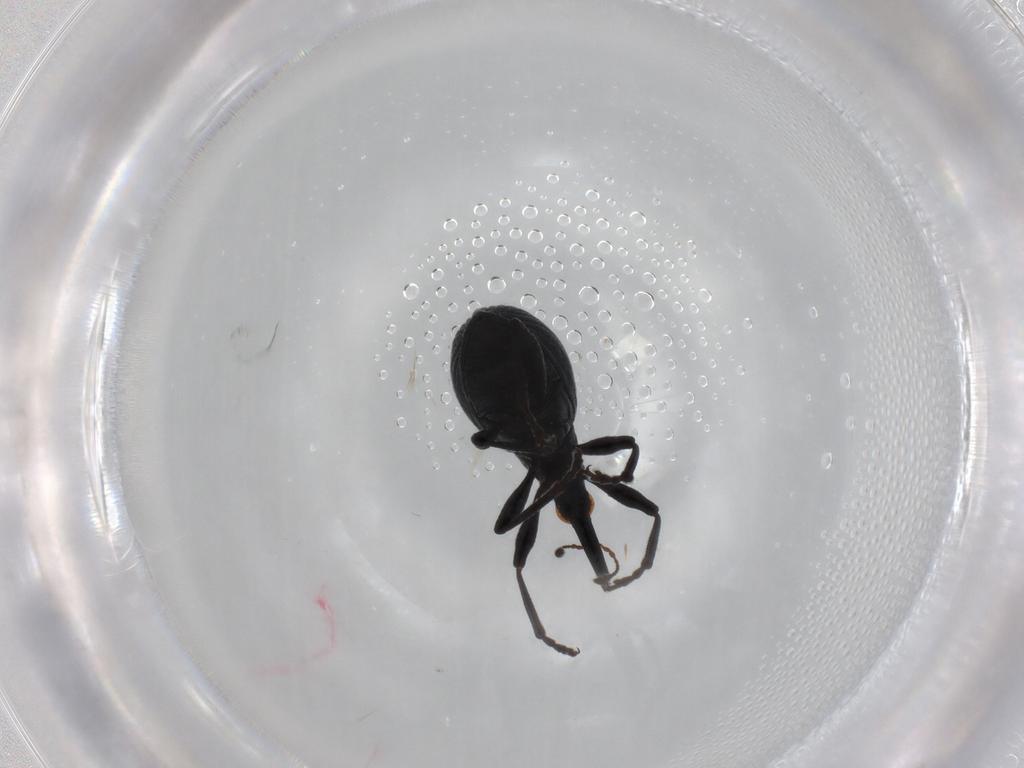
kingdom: Animalia
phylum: Arthropoda
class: Insecta
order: Coleoptera
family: Brentidae
